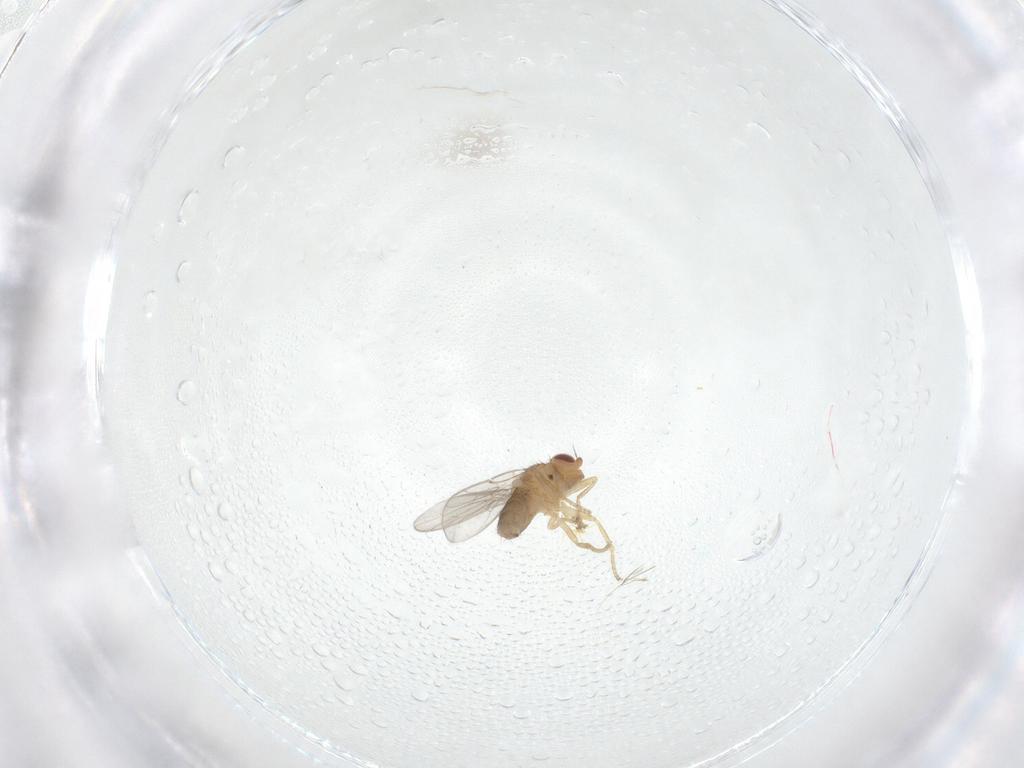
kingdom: Animalia
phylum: Arthropoda
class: Insecta
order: Diptera
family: Chloropidae
